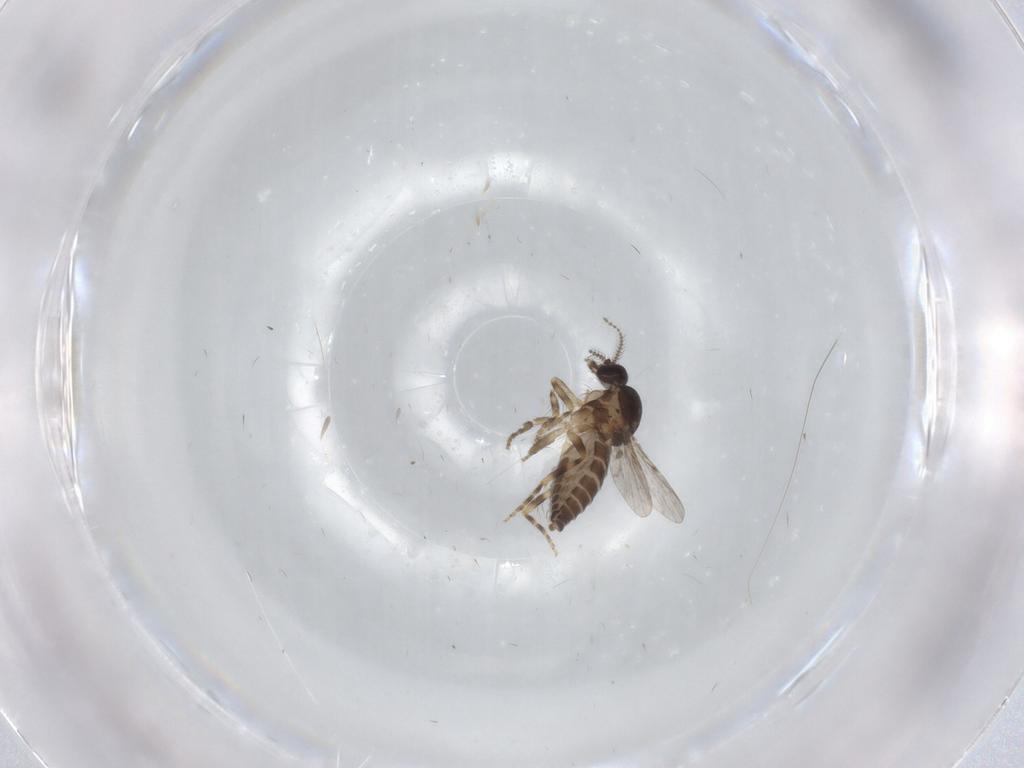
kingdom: Animalia
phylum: Arthropoda
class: Insecta
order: Diptera
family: Ceratopogonidae
